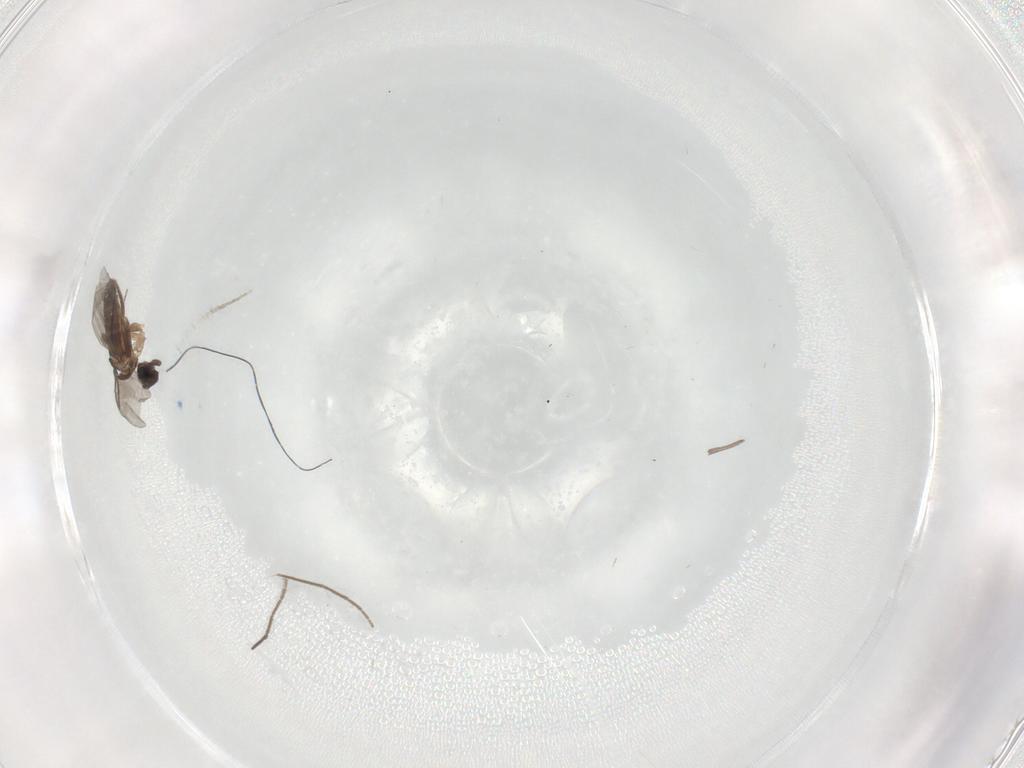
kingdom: Animalia
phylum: Arthropoda
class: Insecta
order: Diptera
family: Chironomidae
